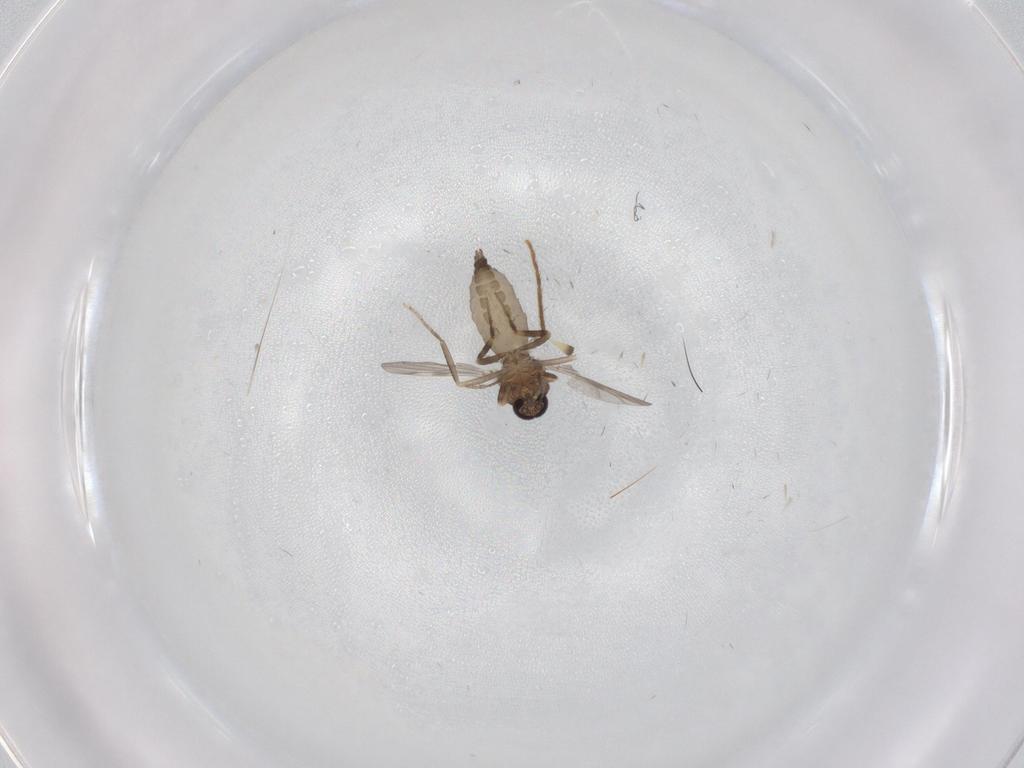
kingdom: Animalia
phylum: Arthropoda
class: Insecta
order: Diptera
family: Ceratopogonidae
